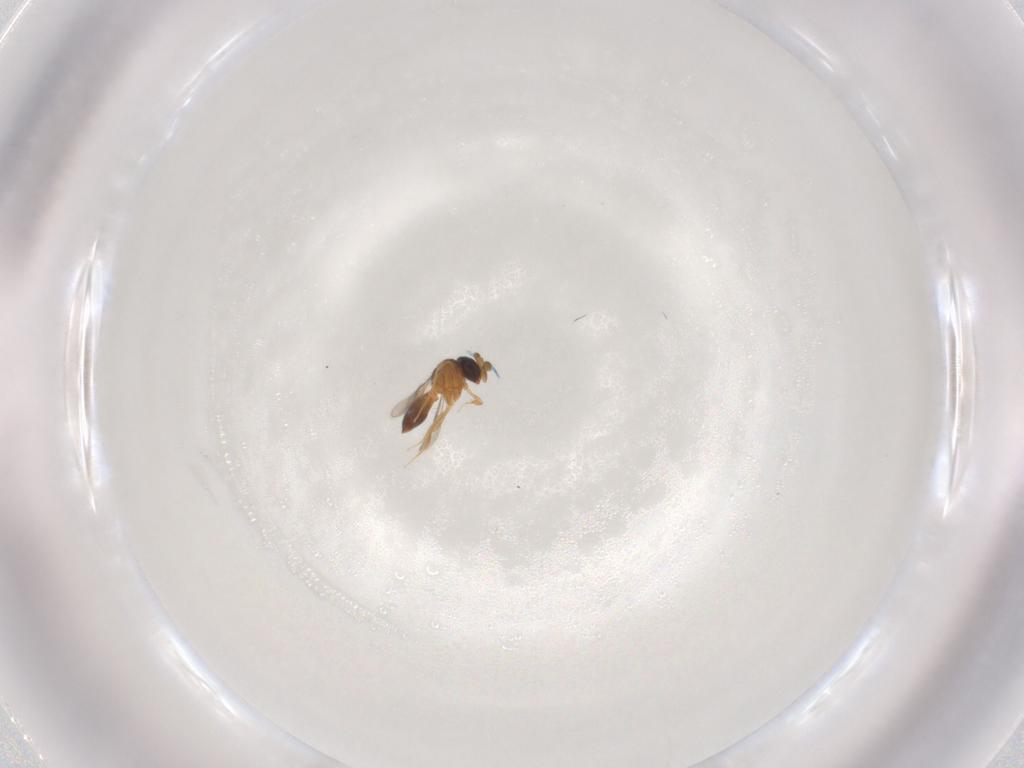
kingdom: Animalia
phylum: Arthropoda
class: Insecta
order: Hymenoptera
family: Scelionidae
